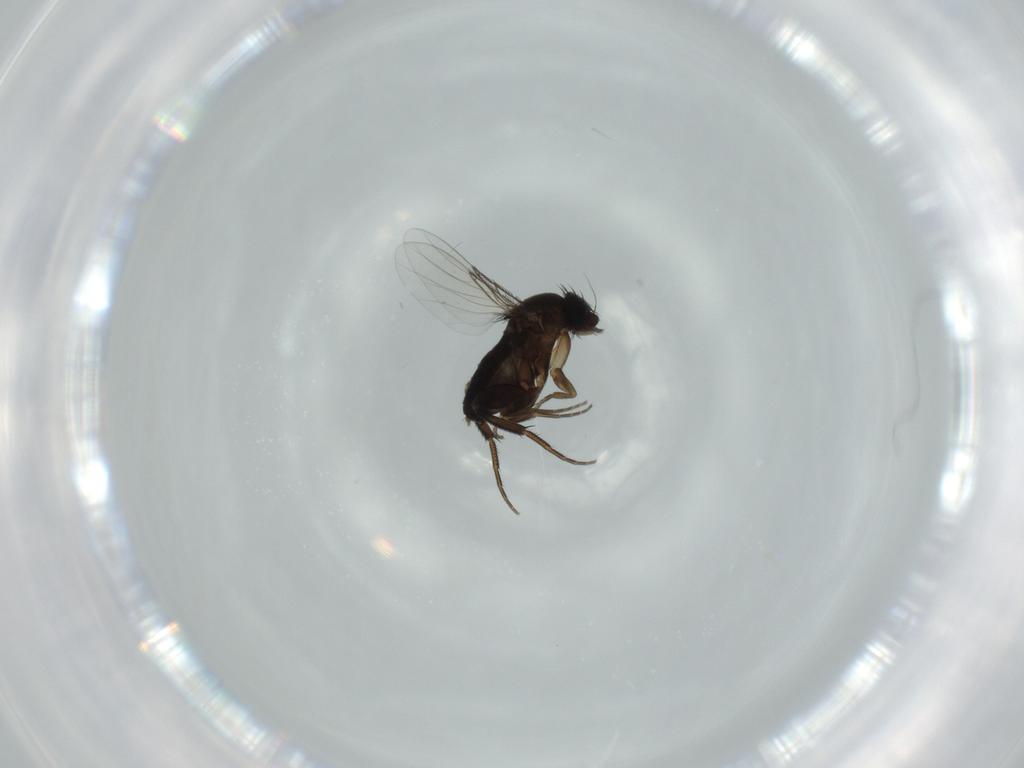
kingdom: Animalia
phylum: Arthropoda
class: Insecta
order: Diptera
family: Phoridae
